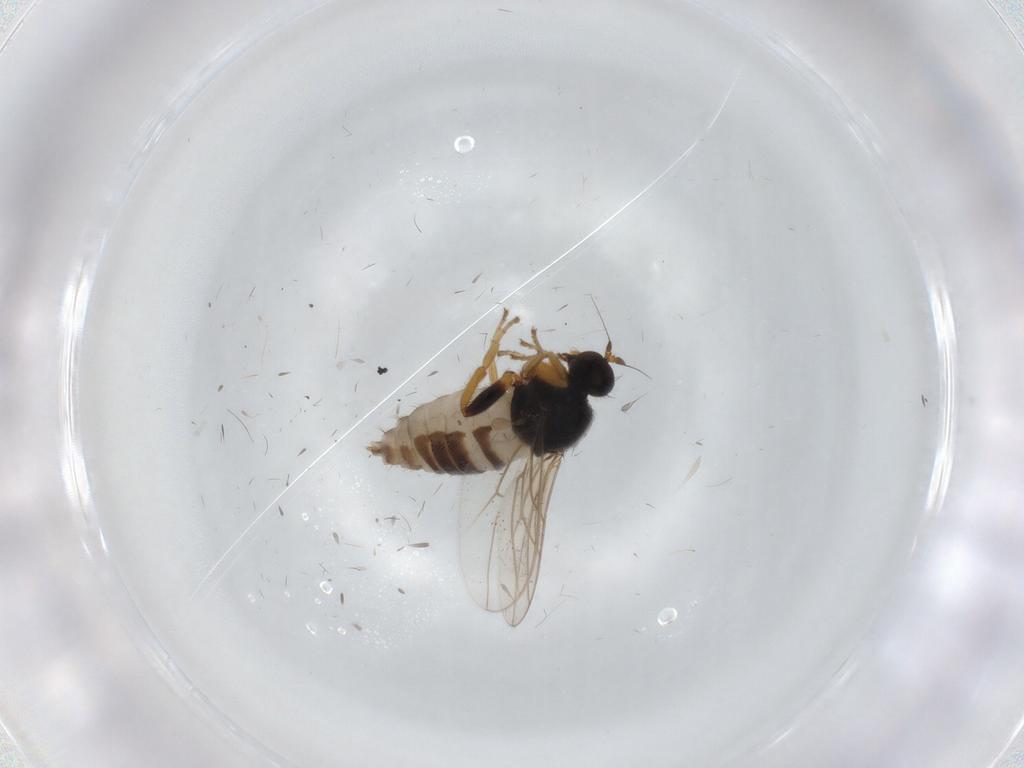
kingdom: Animalia
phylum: Arthropoda
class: Insecta
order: Diptera
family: Hybotidae
